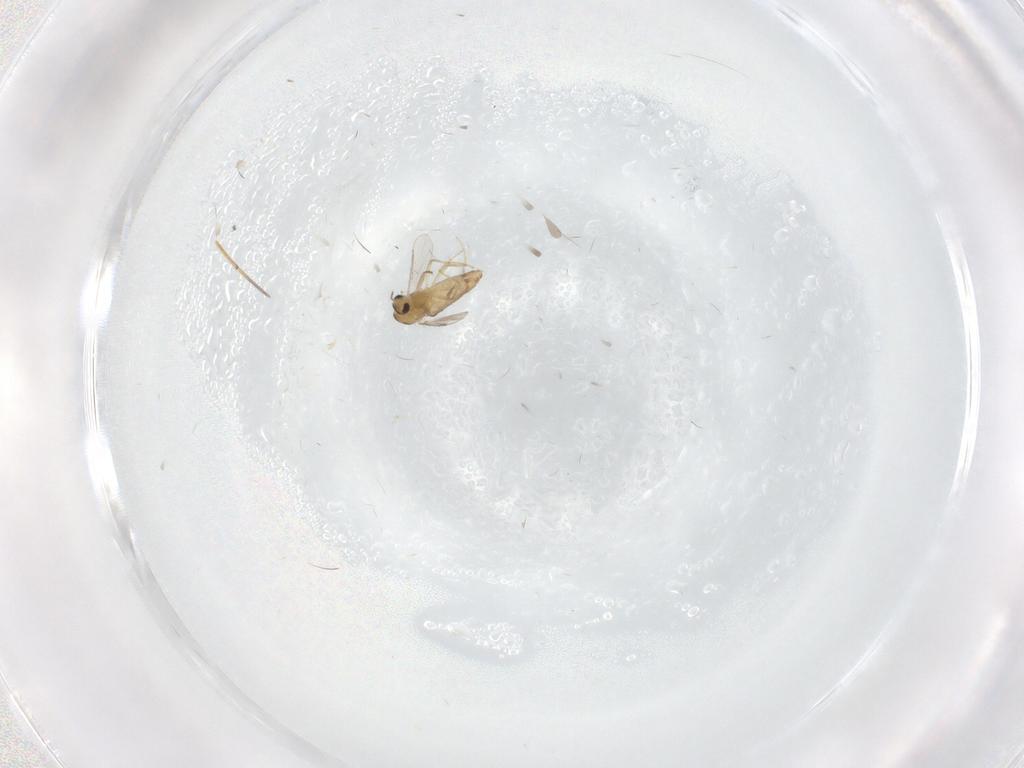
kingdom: Animalia
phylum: Arthropoda
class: Insecta
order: Diptera
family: Chironomidae
